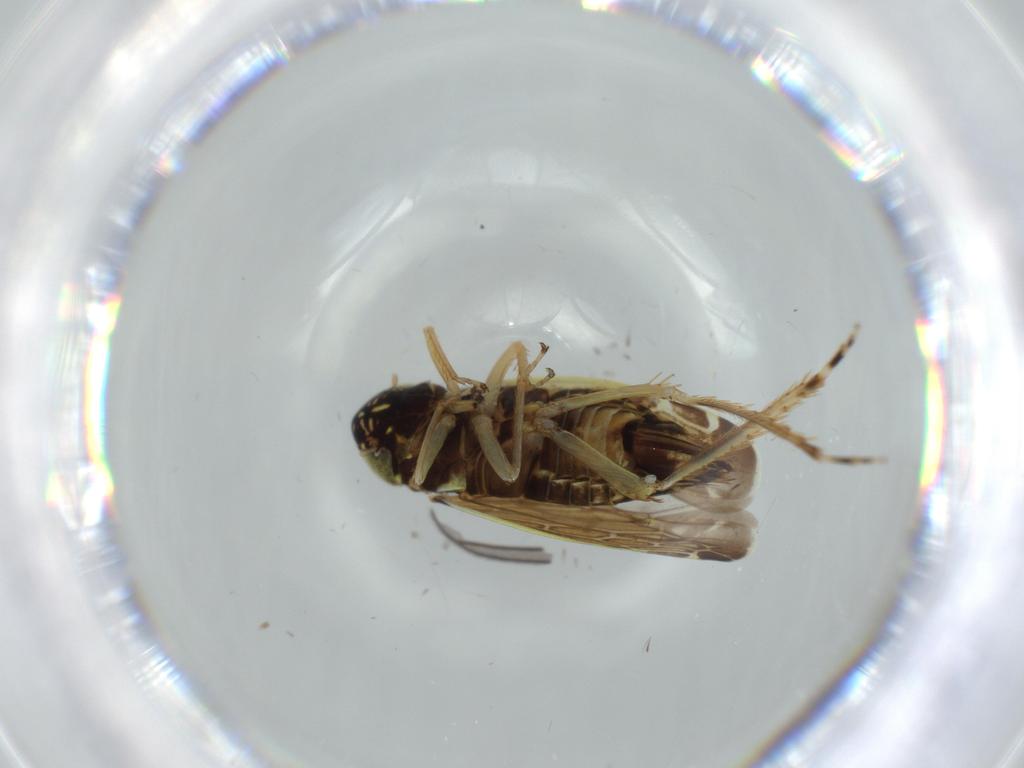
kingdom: Animalia
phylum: Arthropoda
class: Insecta
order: Hemiptera
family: Cicadellidae
